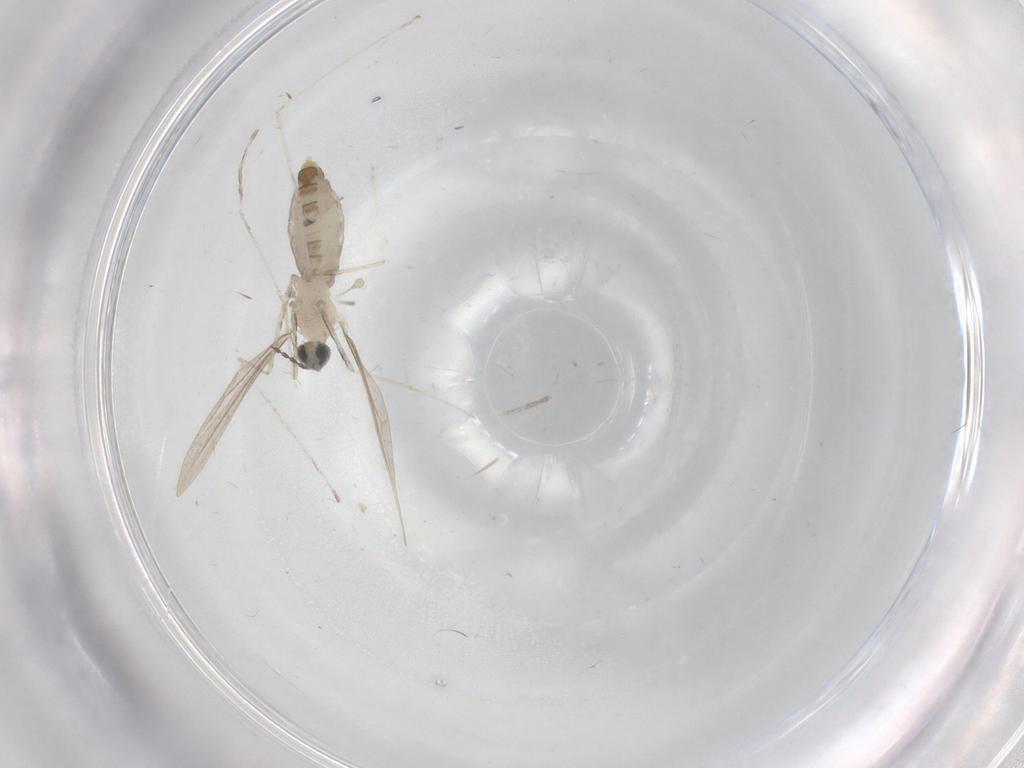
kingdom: Animalia
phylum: Arthropoda
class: Insecta
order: Diptera
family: Cecidomyiidae
